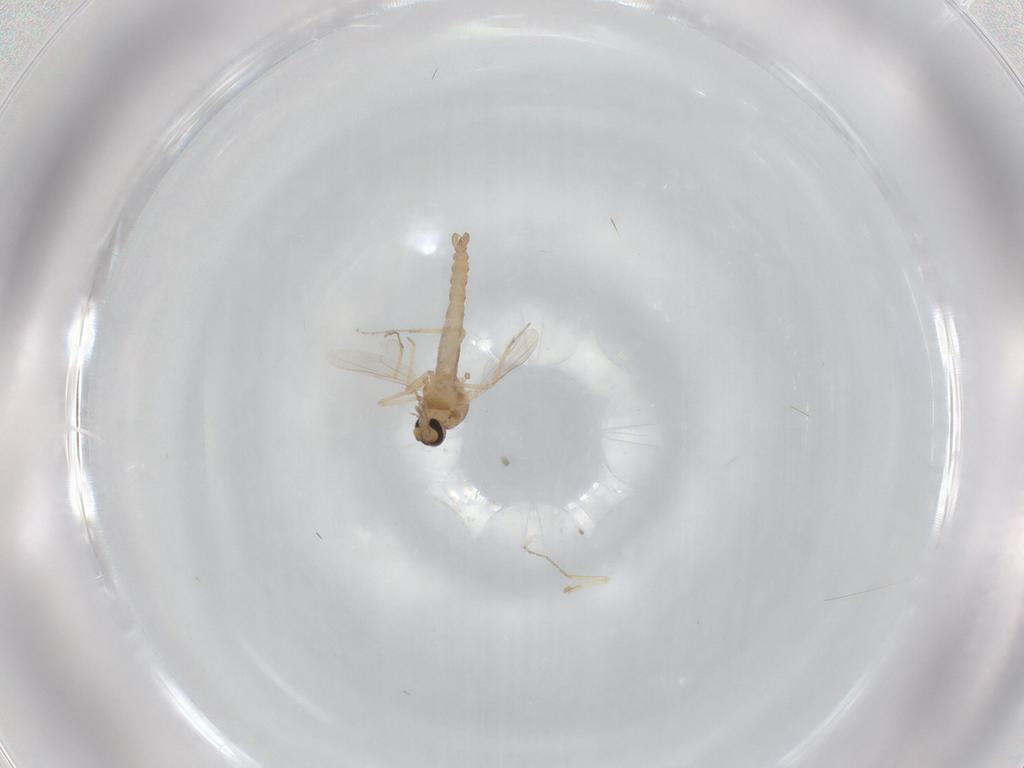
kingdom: Animalia
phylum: Arthropoda
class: Insecta
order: Diptera
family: Ceratopogonidae
